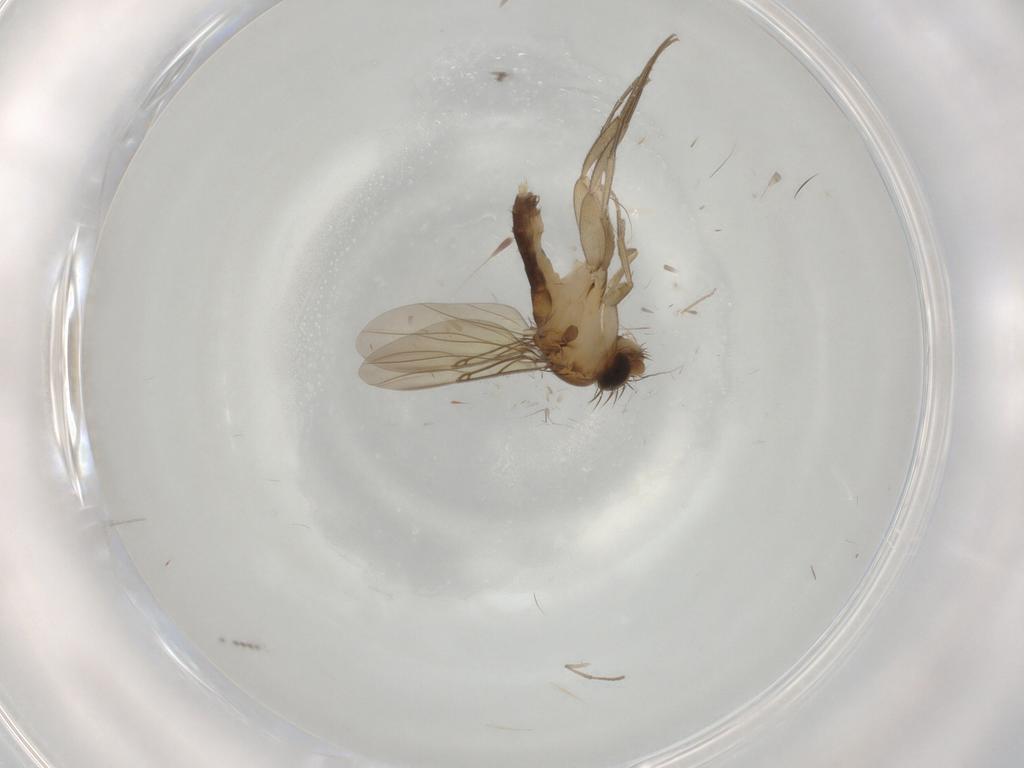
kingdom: Animalia
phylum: Arthropoda
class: Insecta
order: Diptera
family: Phoridae
